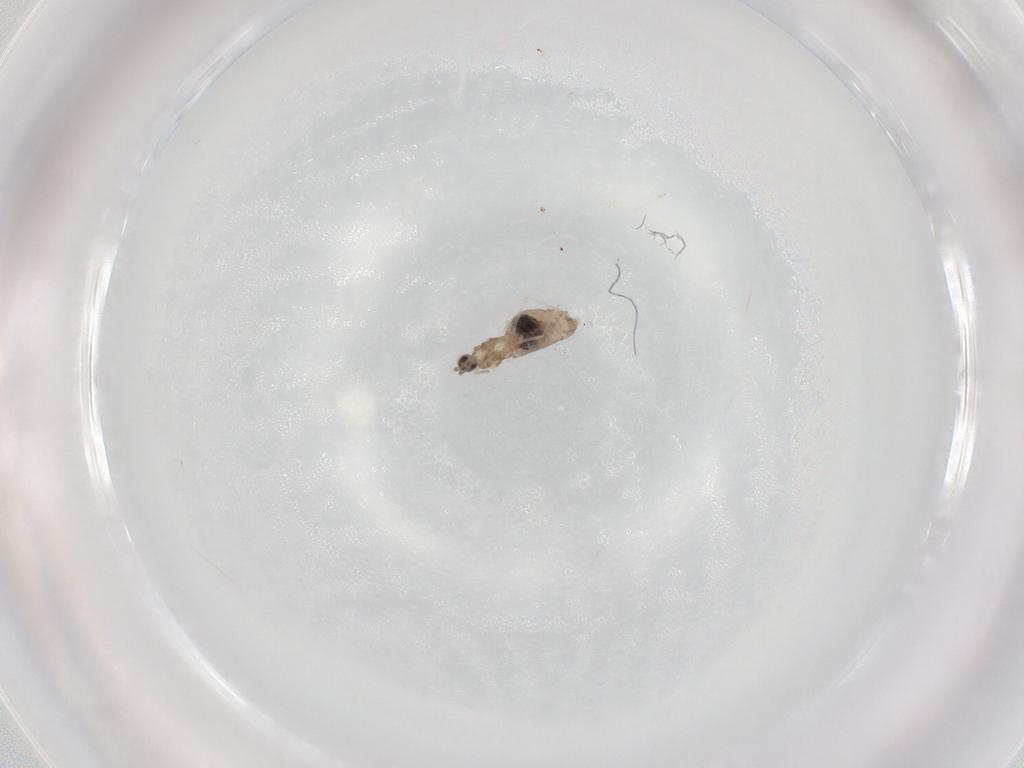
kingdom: Animalia
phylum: Arthropoda
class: Insecta
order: Diptera
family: Cecidomyiidae
